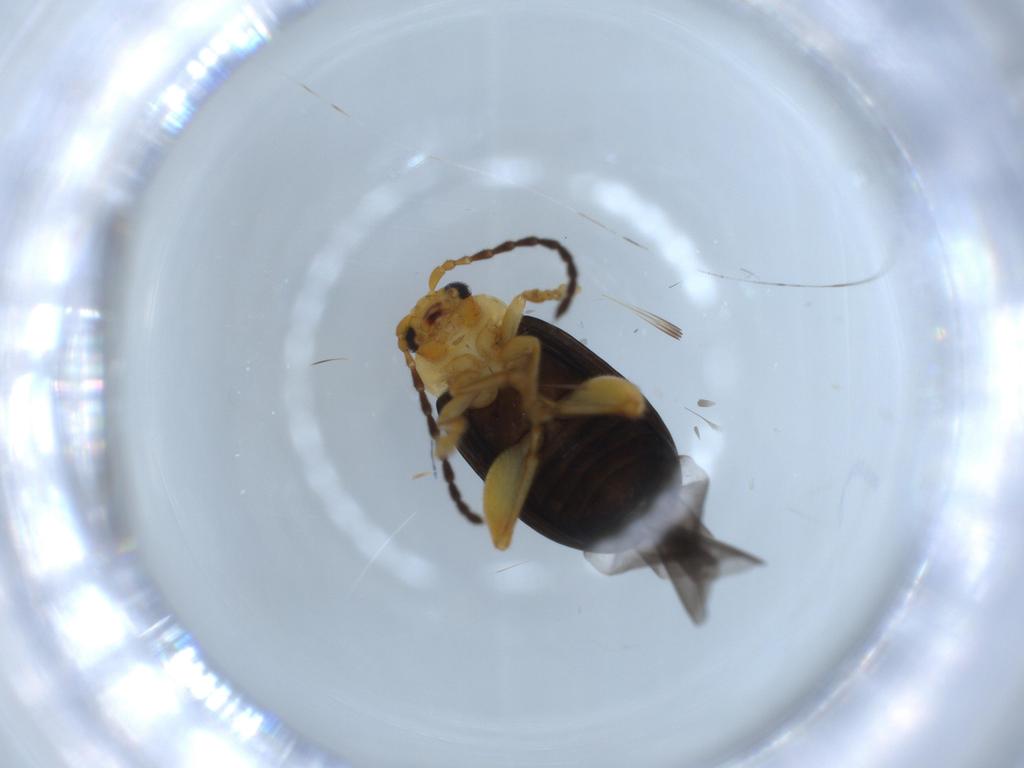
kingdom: Animalia
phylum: Arthropoda
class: Insecta
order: Coleoptera
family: Chrysomelidae
